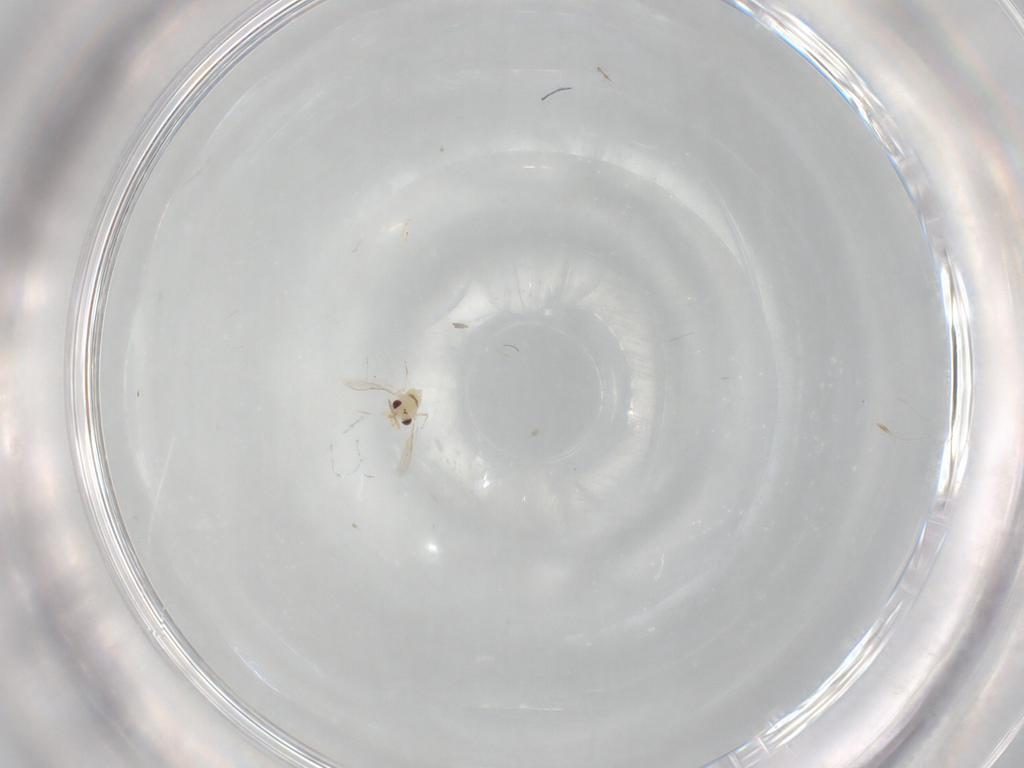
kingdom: Animalia
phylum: Arthropoda
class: Insecta
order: Hymenoptera
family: Aphelinidae
